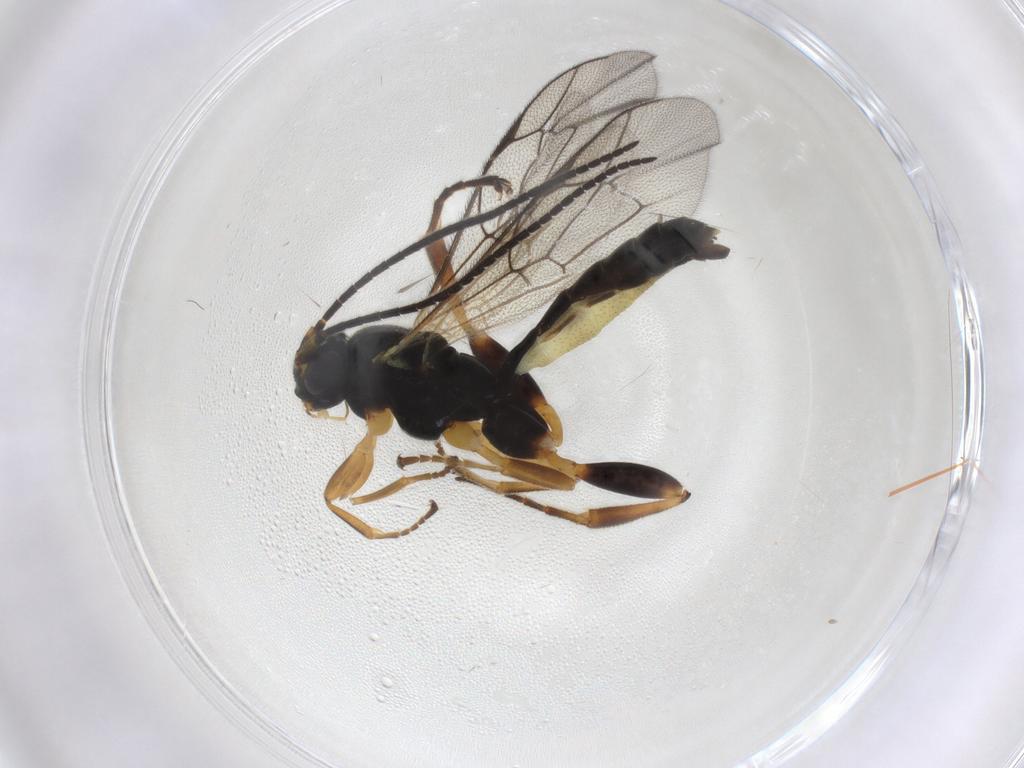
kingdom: Animalia
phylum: Arthropoda
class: Insecta
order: Hymenoptera
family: Ichneumonidae
